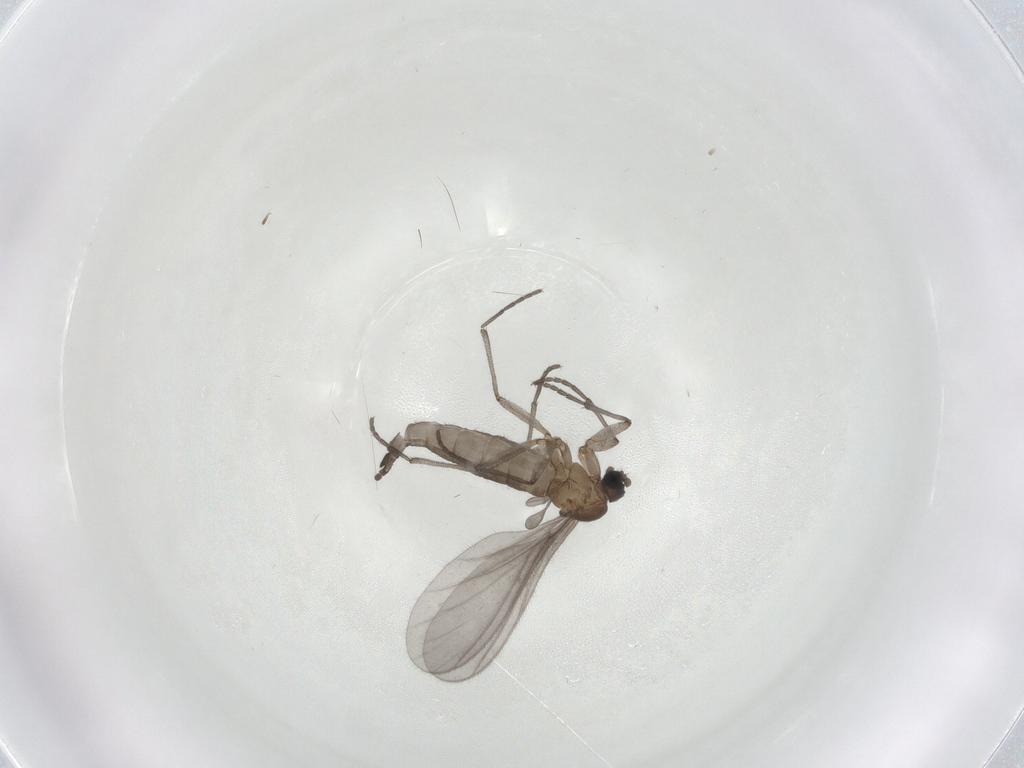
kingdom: Animalia
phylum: Arthropoda
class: Insecta
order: Diptera
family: Sciaridae
